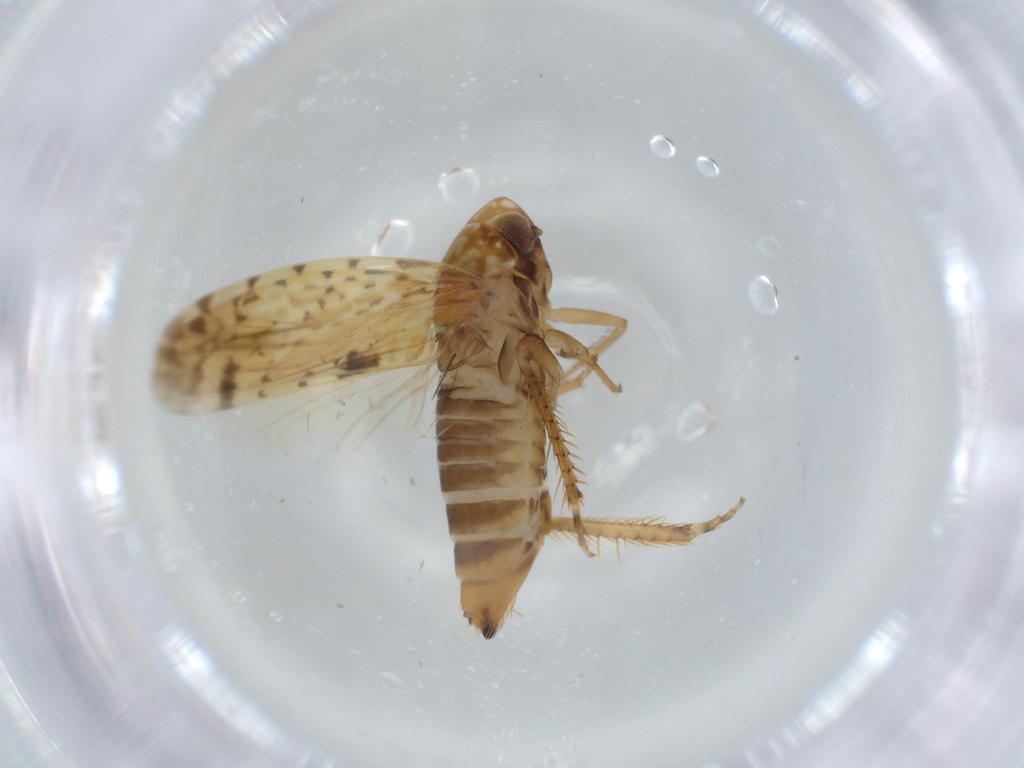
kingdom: Animalia
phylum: Arthropoda
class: Insecta
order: Hemiptera
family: Cicadellidae
